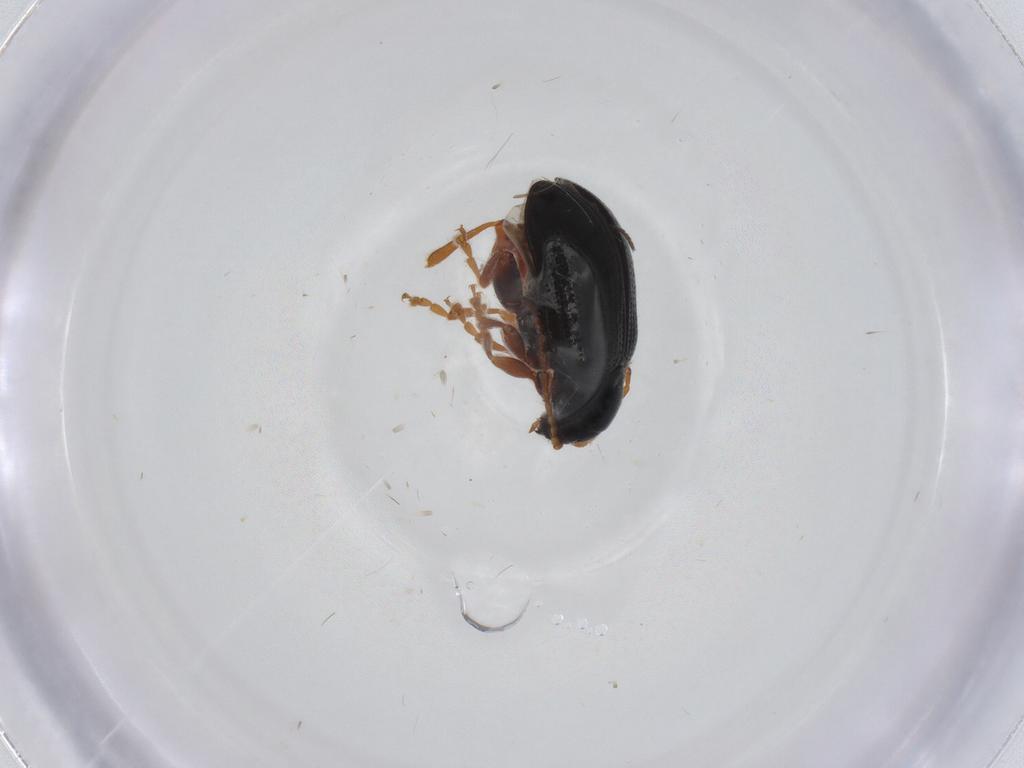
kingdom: Animalia
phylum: Arthropoda
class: Insecta
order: Coleoptera
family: Chrysomelidae
